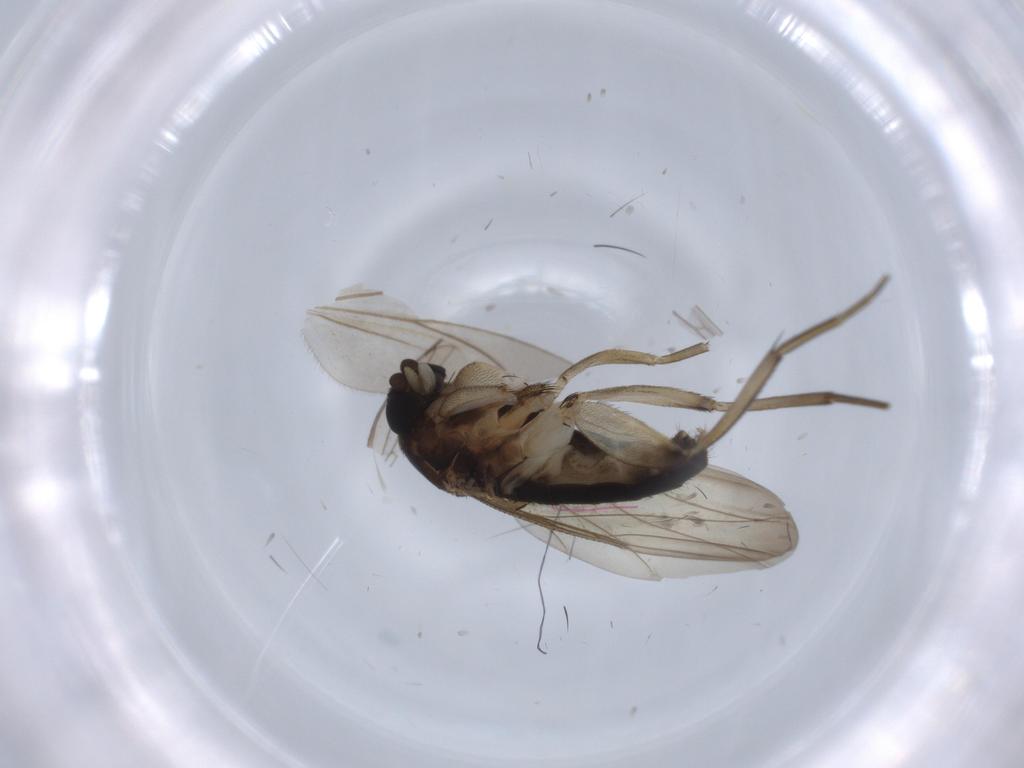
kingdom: Animalia
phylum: Arthropoda
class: Insecta
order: Diptera
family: Phoridae
